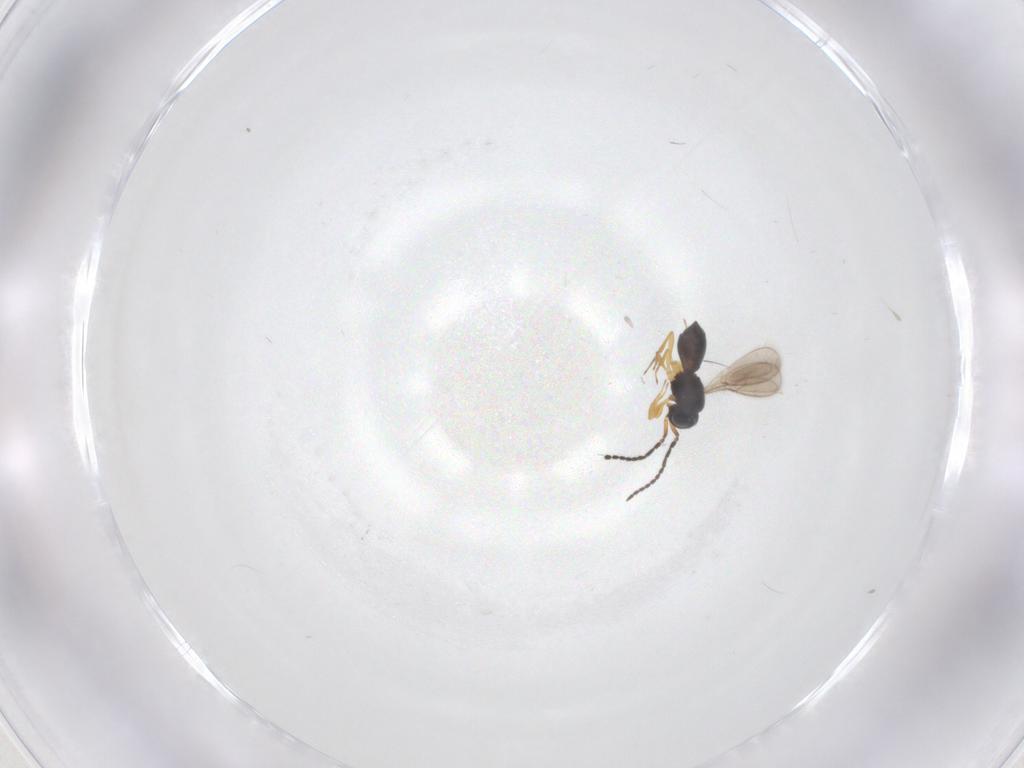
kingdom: Animalia
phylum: Arthropoda
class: Insecta
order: Hymenoptera
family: Scelionidae
